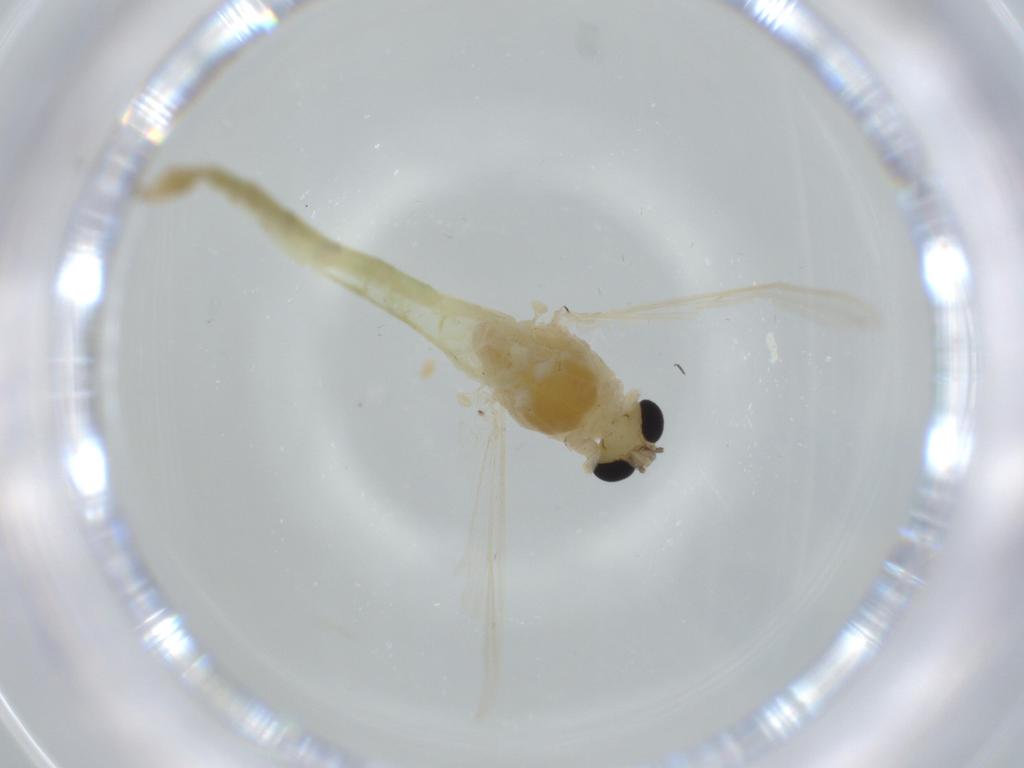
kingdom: Animalia
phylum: Arthropoda
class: Insecta
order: Diptera
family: Chironomidae
